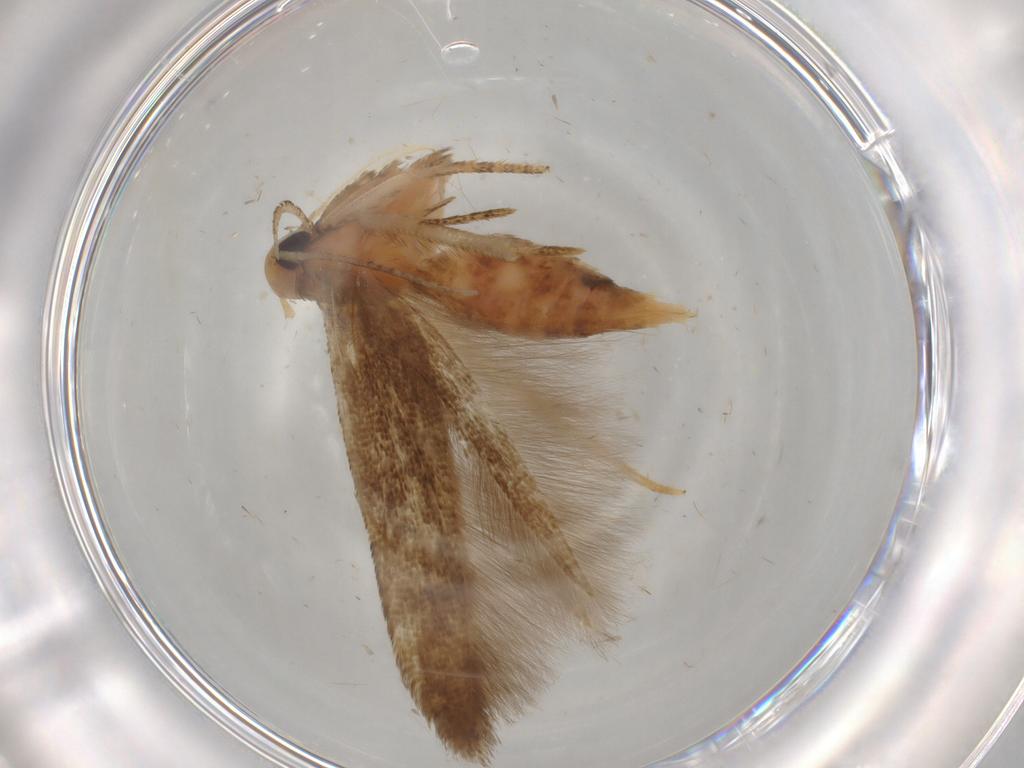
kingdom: Animalia
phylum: Arthropoda
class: Insecta
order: Lepidoptera
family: Cosmopterigidae
